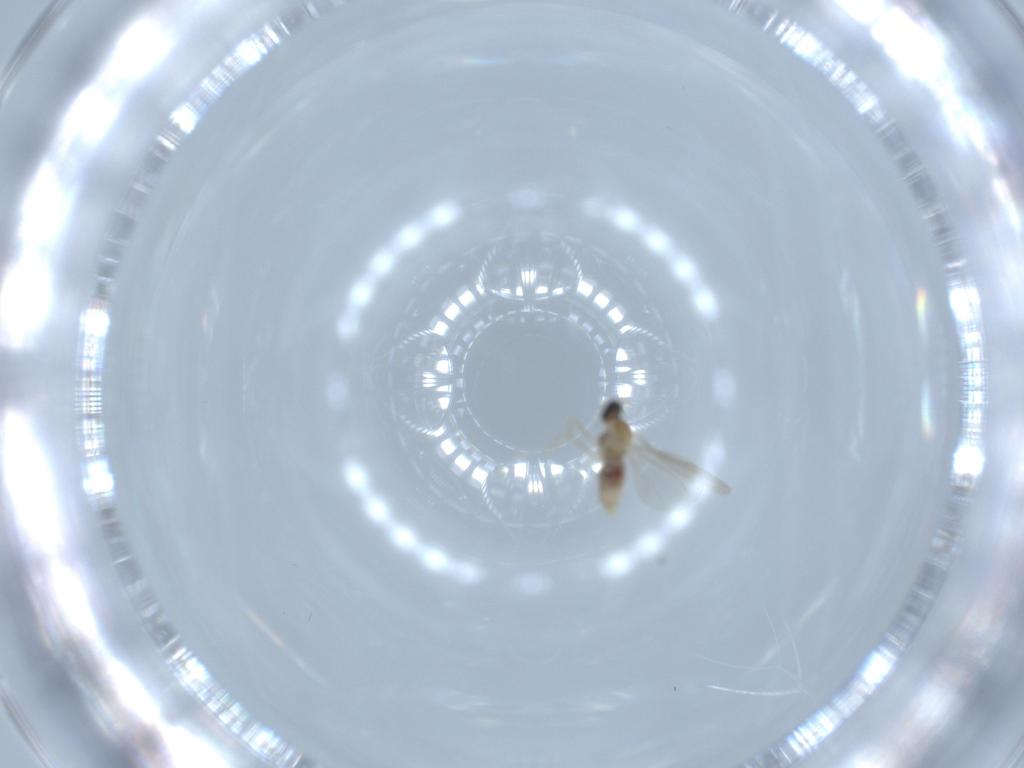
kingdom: Animalia
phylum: Arthropoda
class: Insecta
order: Diptera
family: Cecidomyiidae
